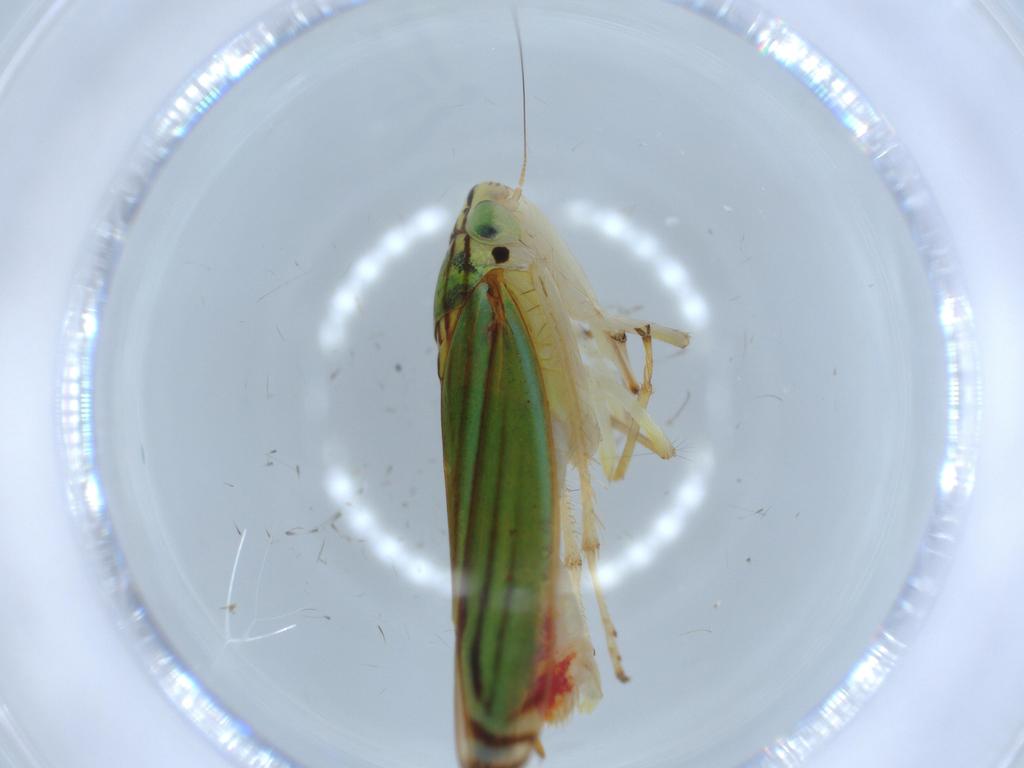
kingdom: Animalia
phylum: Arthropoda
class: Insecta
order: Hemiptera
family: Cicadellidae
